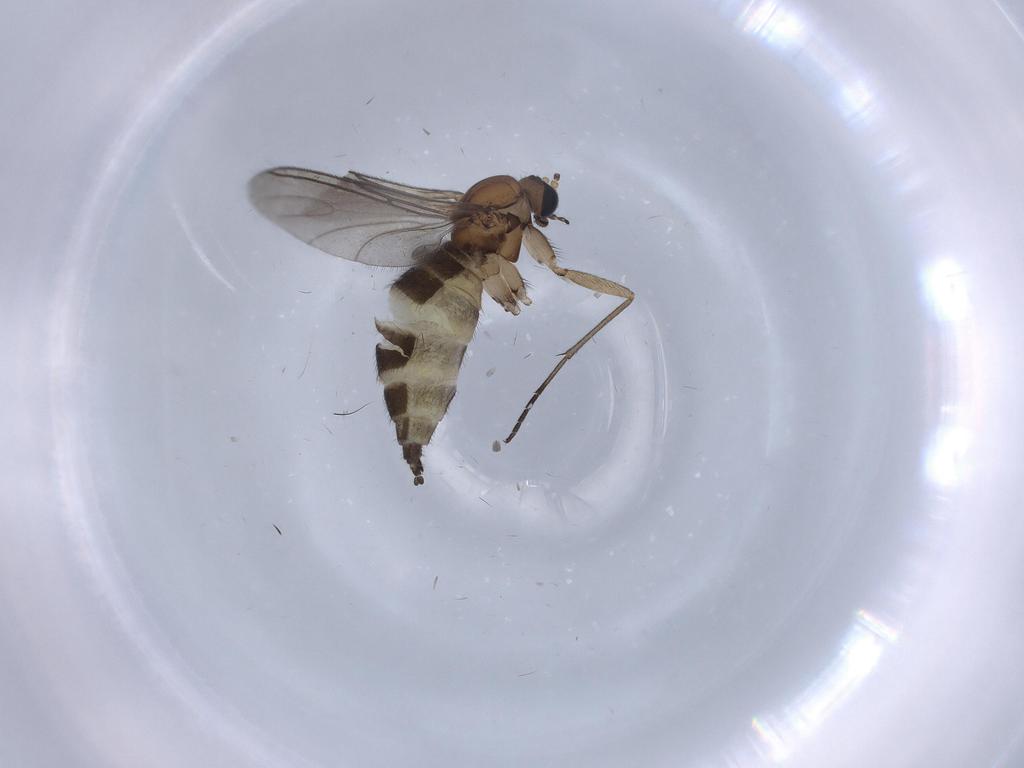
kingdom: Animalia
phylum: Arthropoda
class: Insecta
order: Diptera
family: Sciaridae
